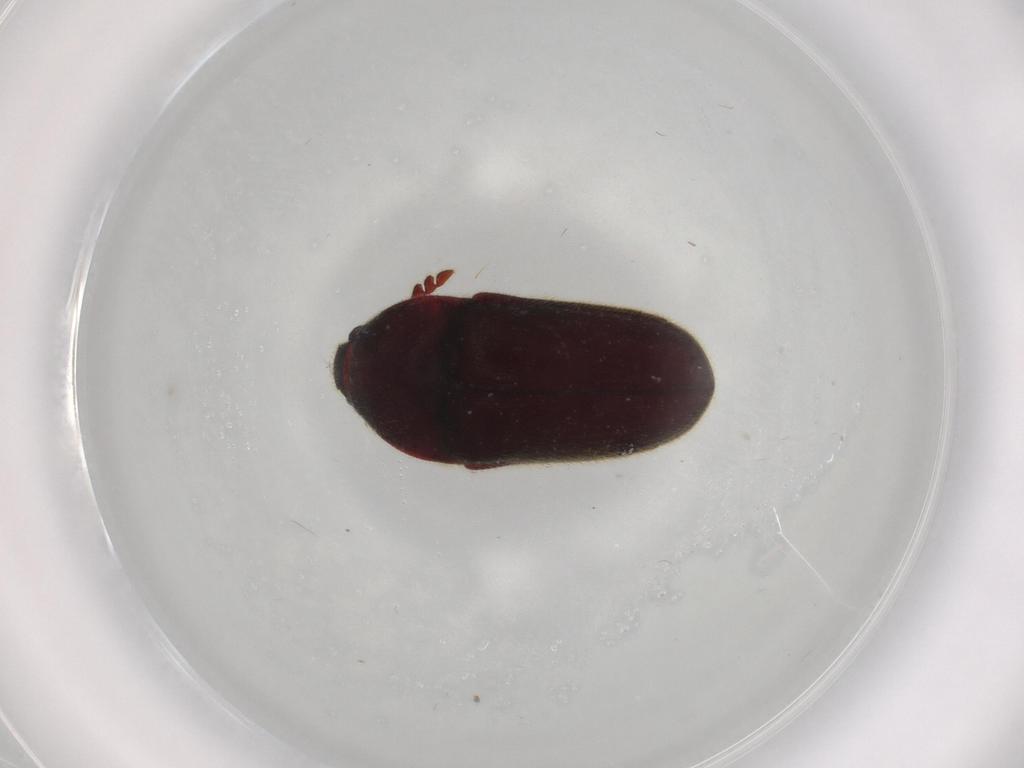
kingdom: Animalia
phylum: Arthropoda
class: Insecta
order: Coleoptera
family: Throscidae
